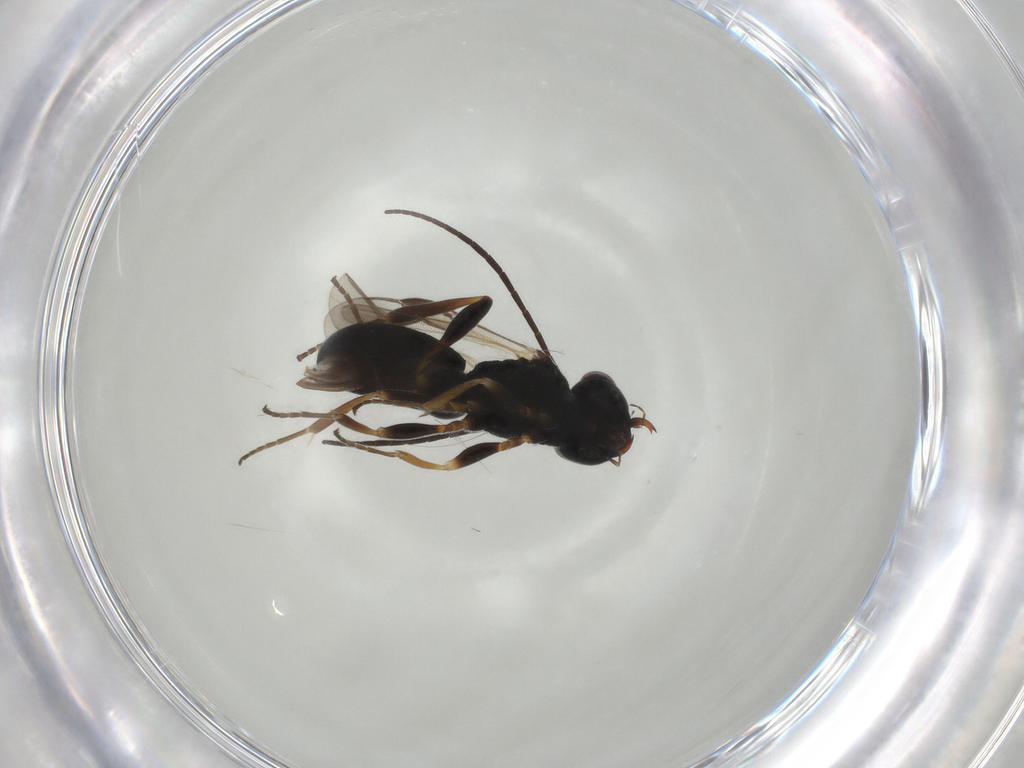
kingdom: Animalia
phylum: Arthropoda
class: Insecta
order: Hymenoptera
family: Braconidae
